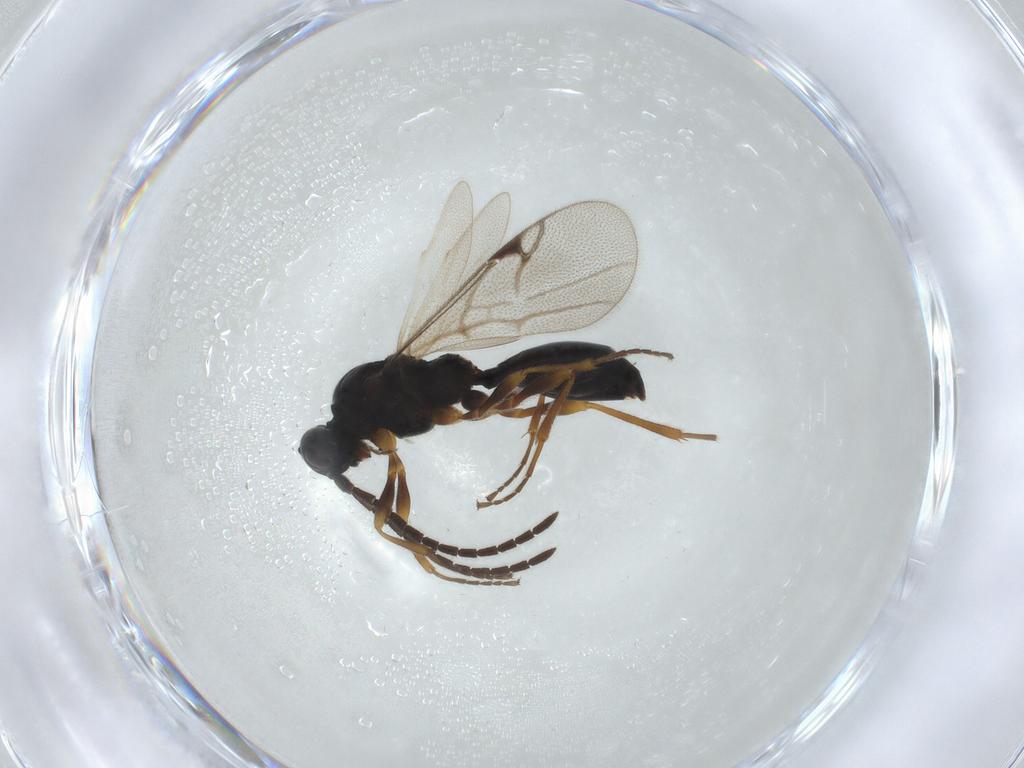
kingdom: Animalia
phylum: Arthropoda
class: Insecta
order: Hymenoptera
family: Proctotrupidae
